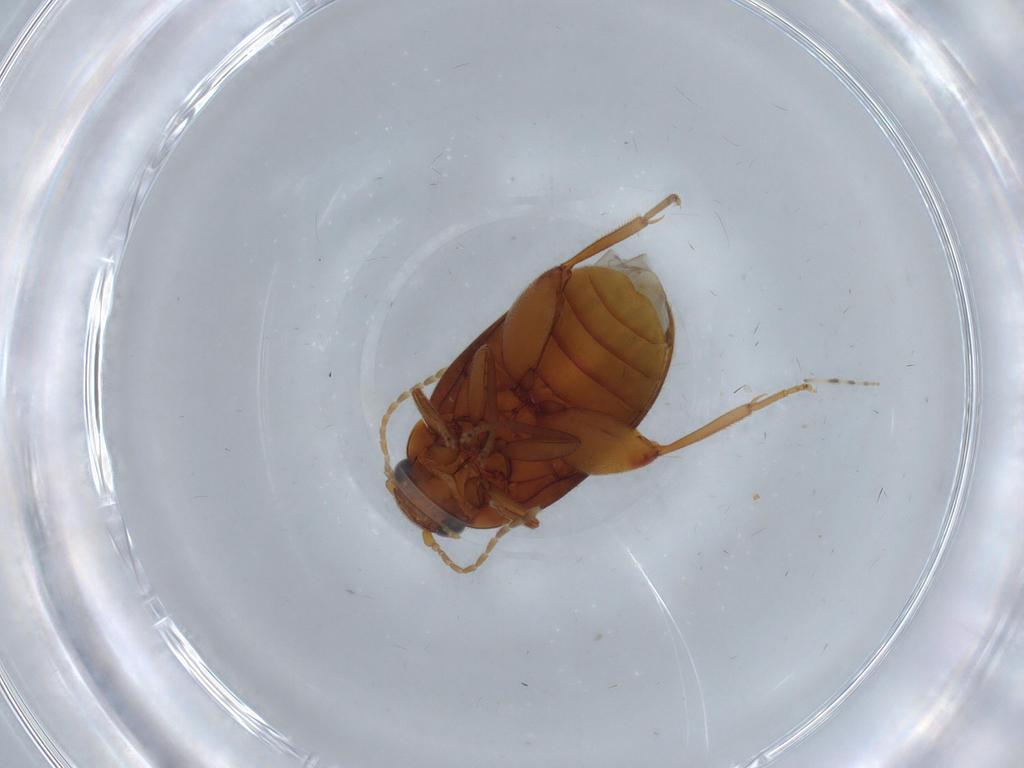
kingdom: Animalia
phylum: Arthropoda
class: Insecta
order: Coleoptera
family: Scirtidae
